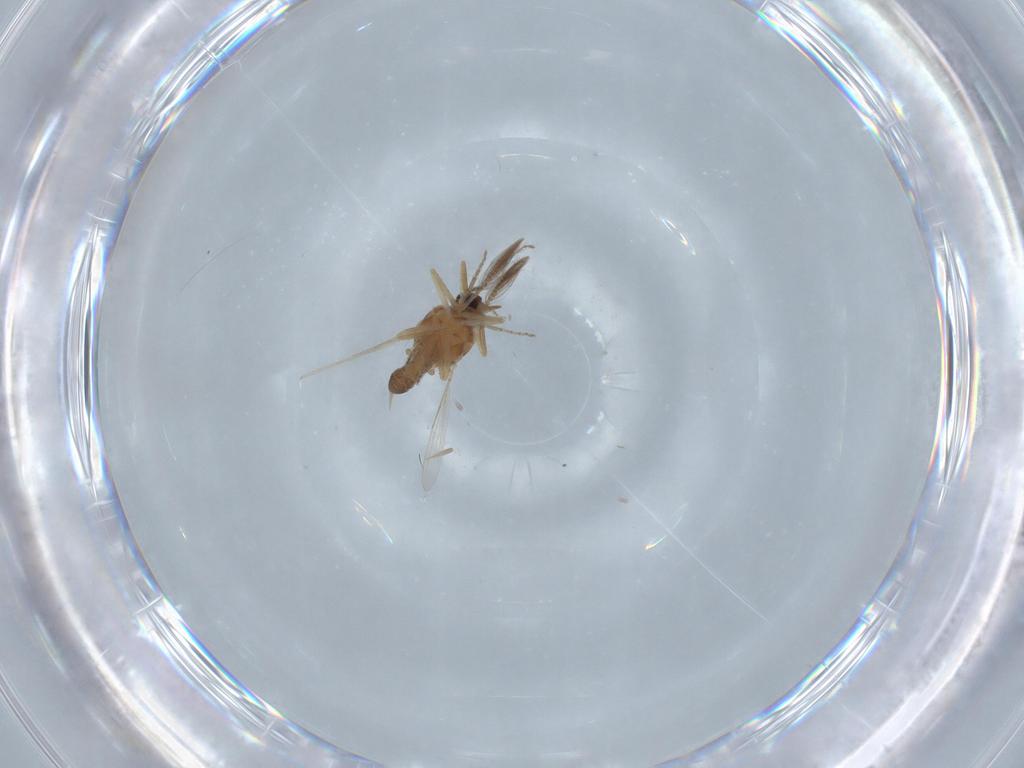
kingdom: Animalia
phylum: Arthropoda
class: Insecta
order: Diptera
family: Ceratopogonidae
